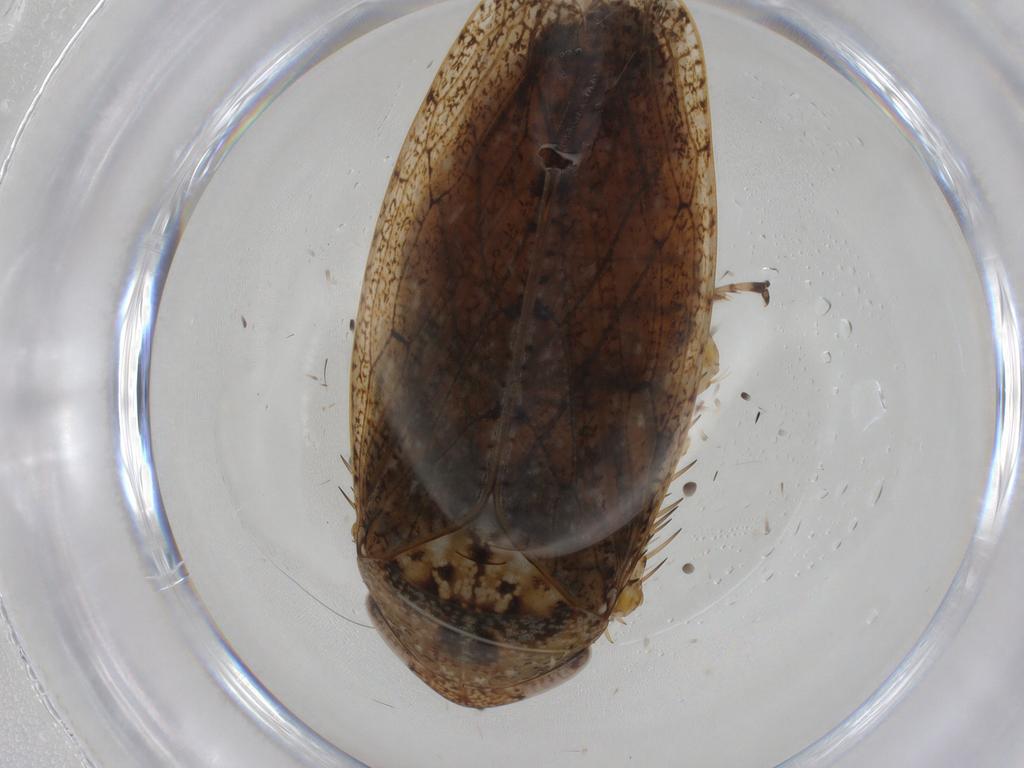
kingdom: Animalia
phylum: Arthropoda
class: Insecta
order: Hemiptera
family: Cicadellidae
